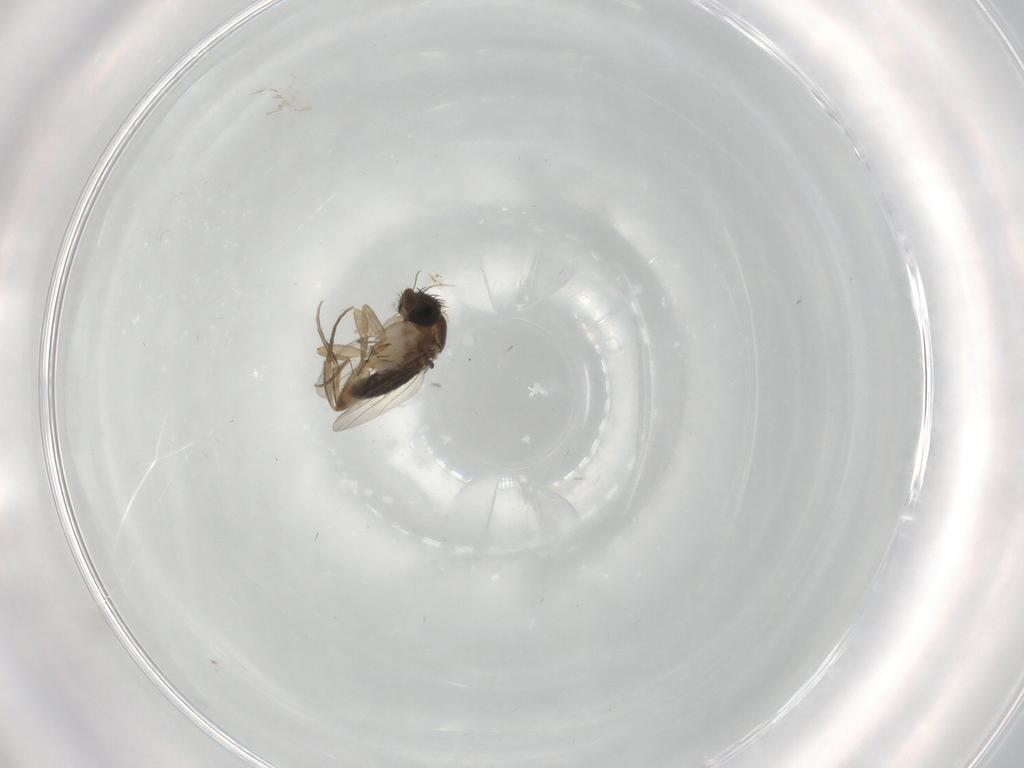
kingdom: Animalia
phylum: Arthropoda
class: Insecta
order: Diptera
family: Phoridae
